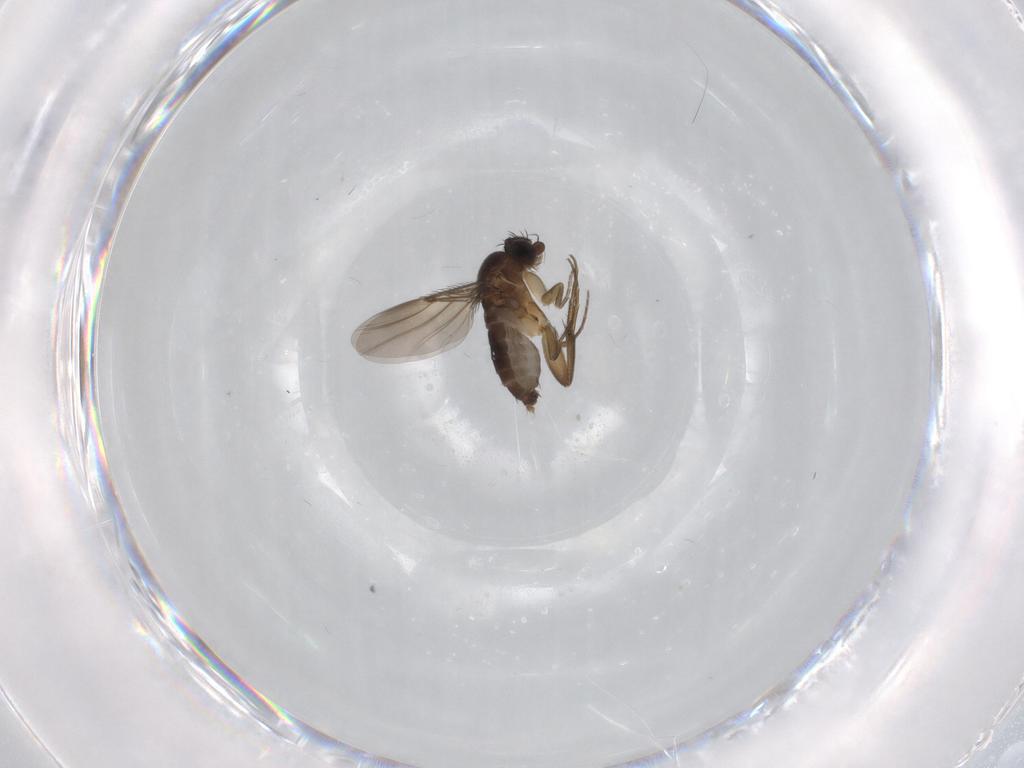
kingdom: Animalia
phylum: Arthropoda
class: Insecta
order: Diptera
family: Phoridae
